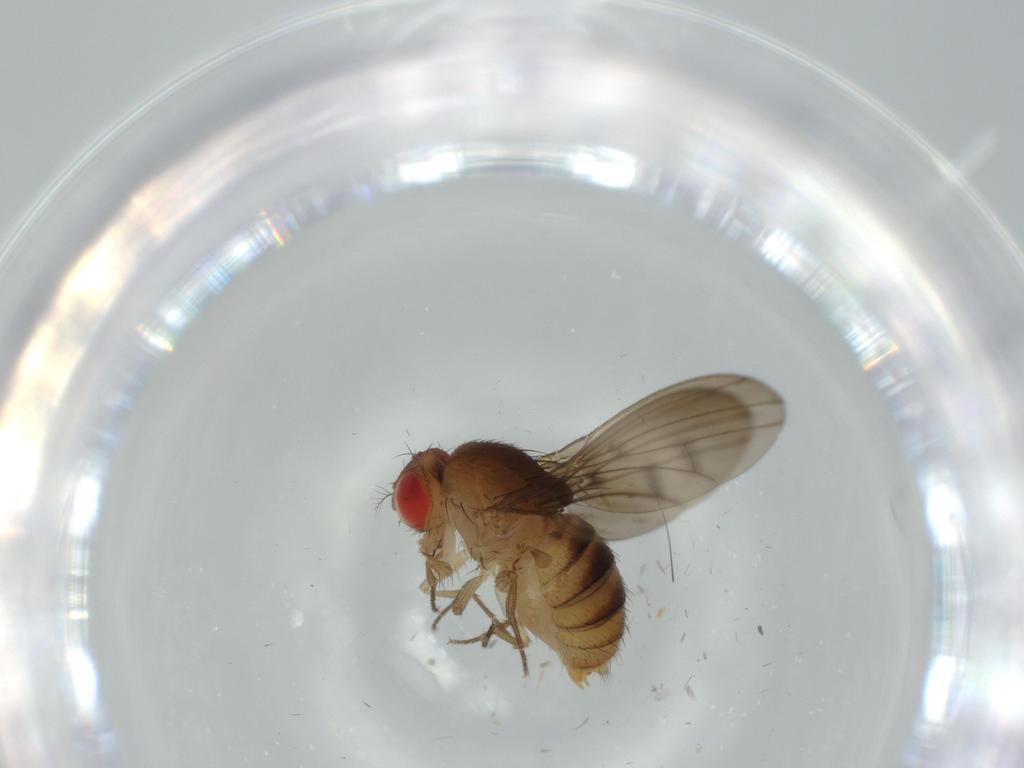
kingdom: Animalia
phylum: Arthropoda
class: Insecta
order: Diptera
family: Drosophilidae
